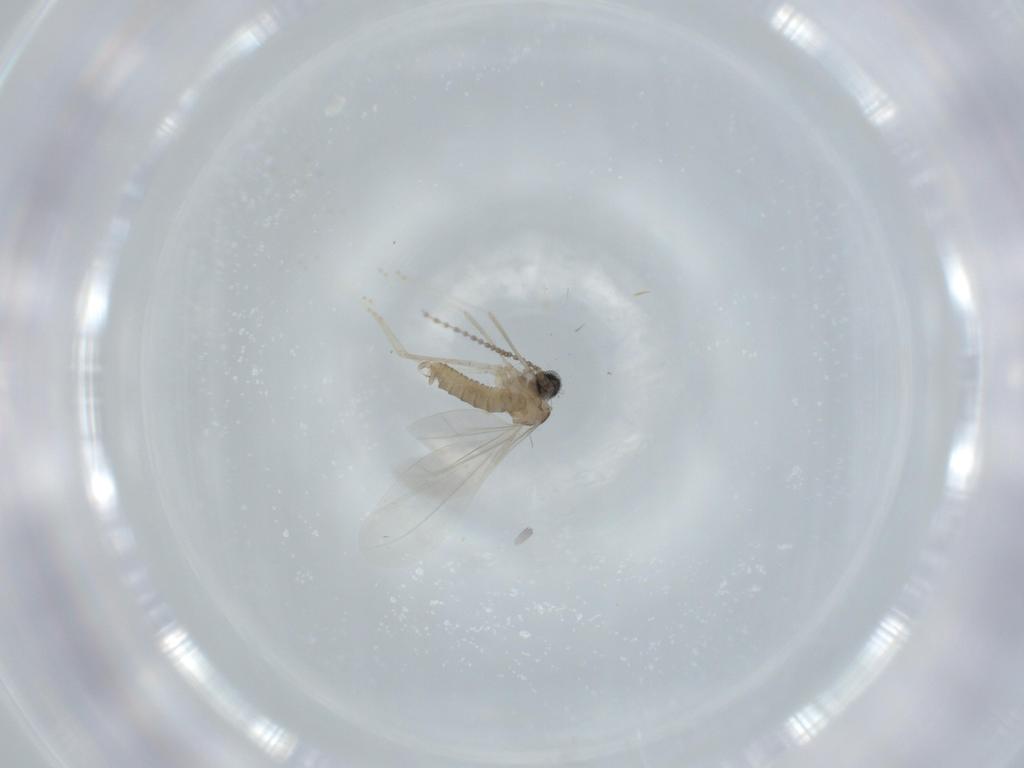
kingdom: Animalia
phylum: Arthropoda
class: Insecta
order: Diptera
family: Cecidomyiidae
